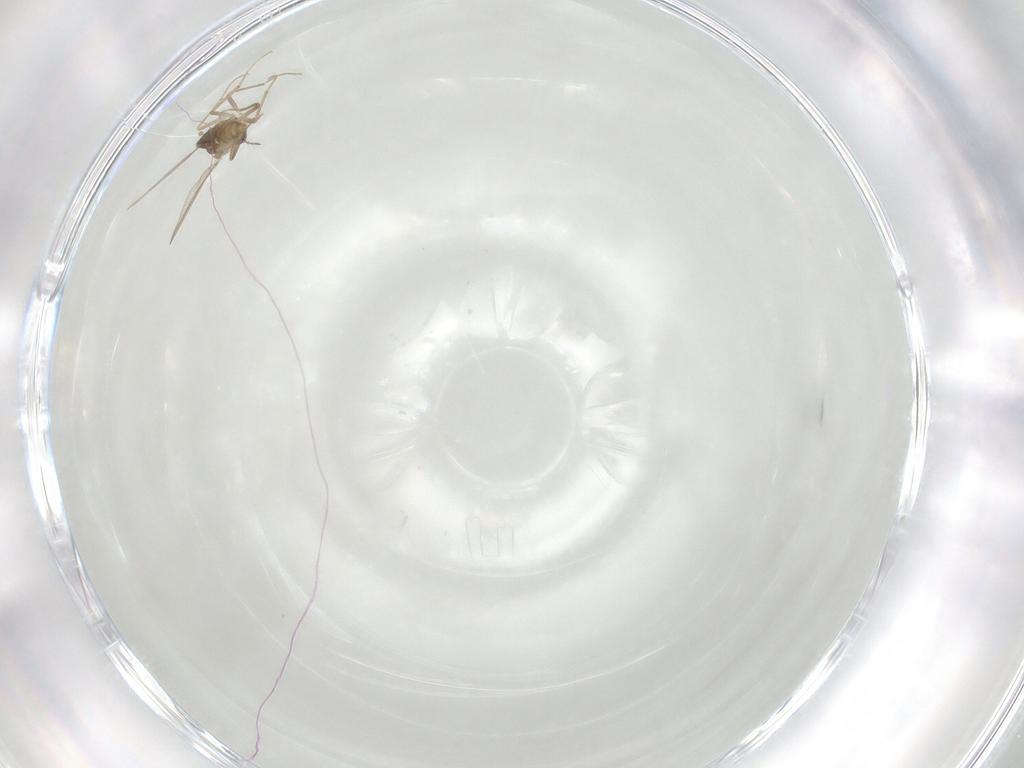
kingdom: Animalia
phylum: Arthropoda
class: Insecta
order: Diptera
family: Chironomidae
